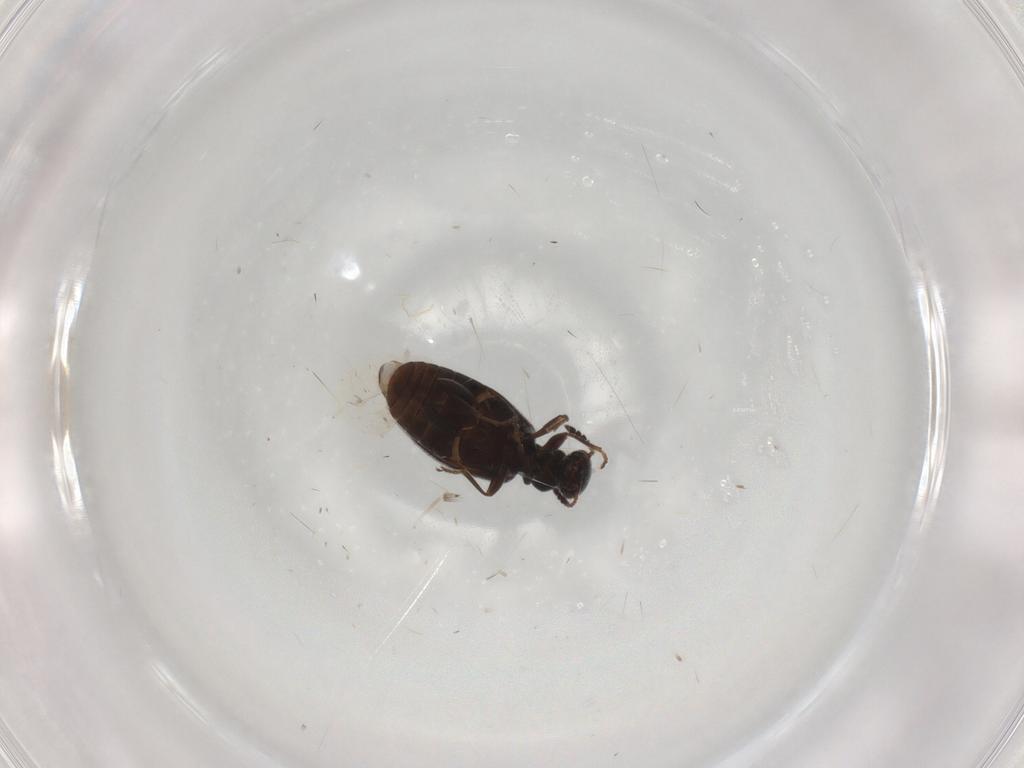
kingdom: Animalia
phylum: Arthropoda
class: Insecta
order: Coleoptera
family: Anthicidae
